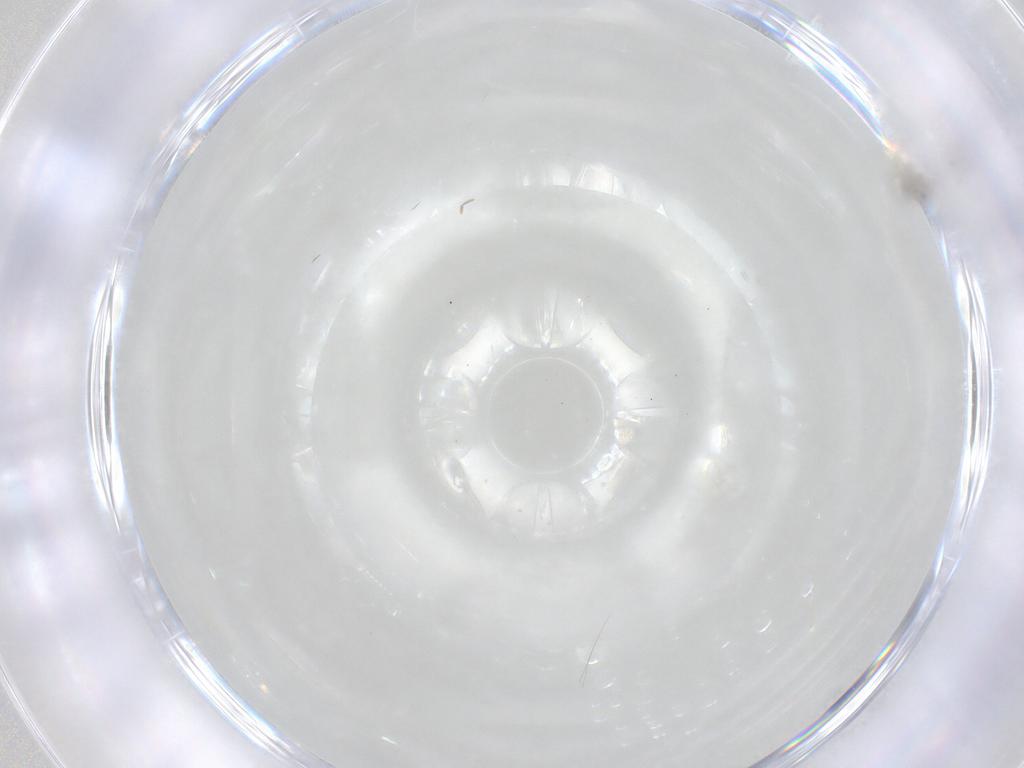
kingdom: Animalia
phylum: Arthropoda
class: Insecta
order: Diptera
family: Cecidomyiidae
